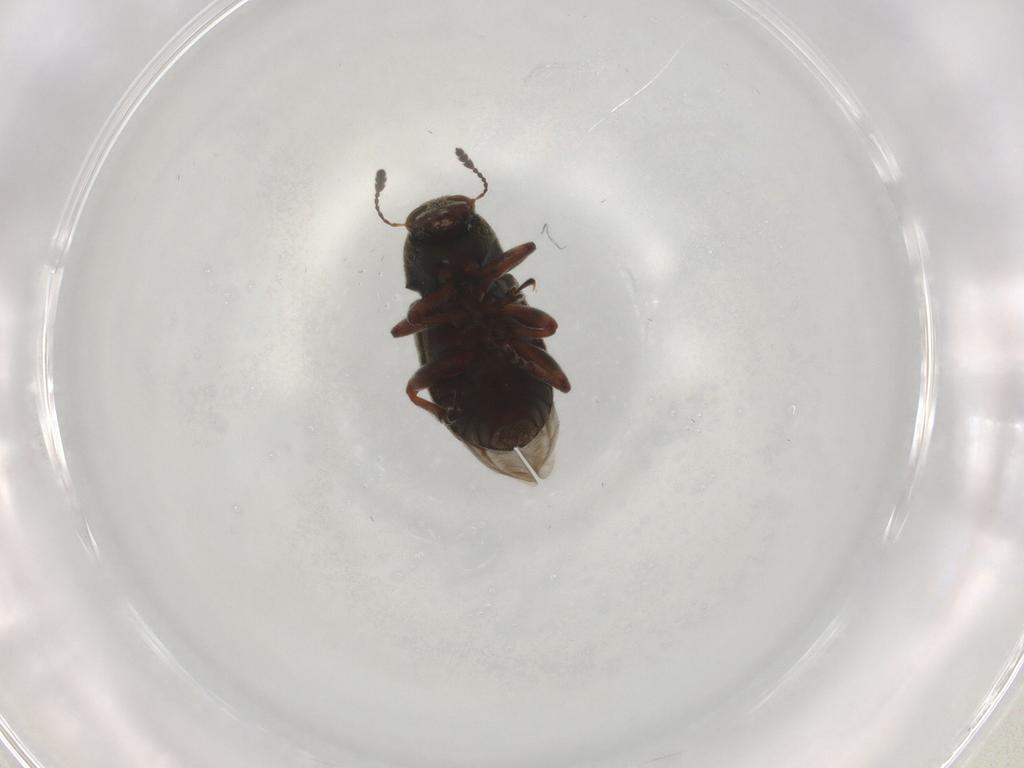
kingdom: Animalia
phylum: Arthropoda
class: Insecta
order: Coleoptera
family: Anthribidae
